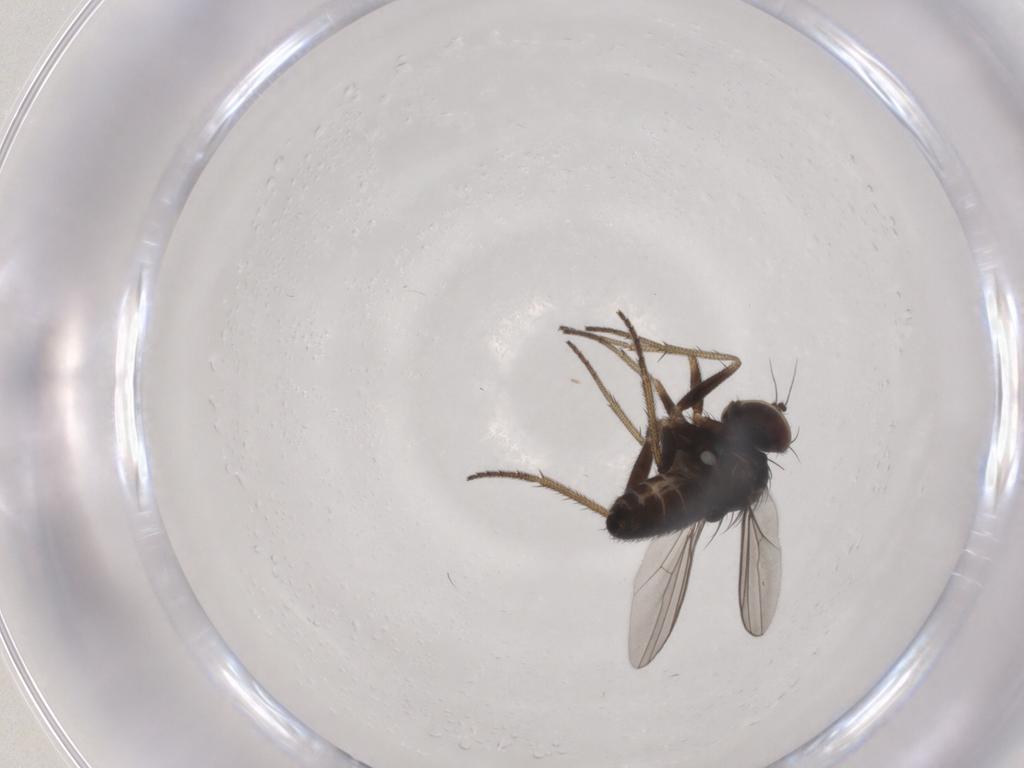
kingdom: Animalia
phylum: Arthropoda
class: Insecta
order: Diptera
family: Dolichopodidae
